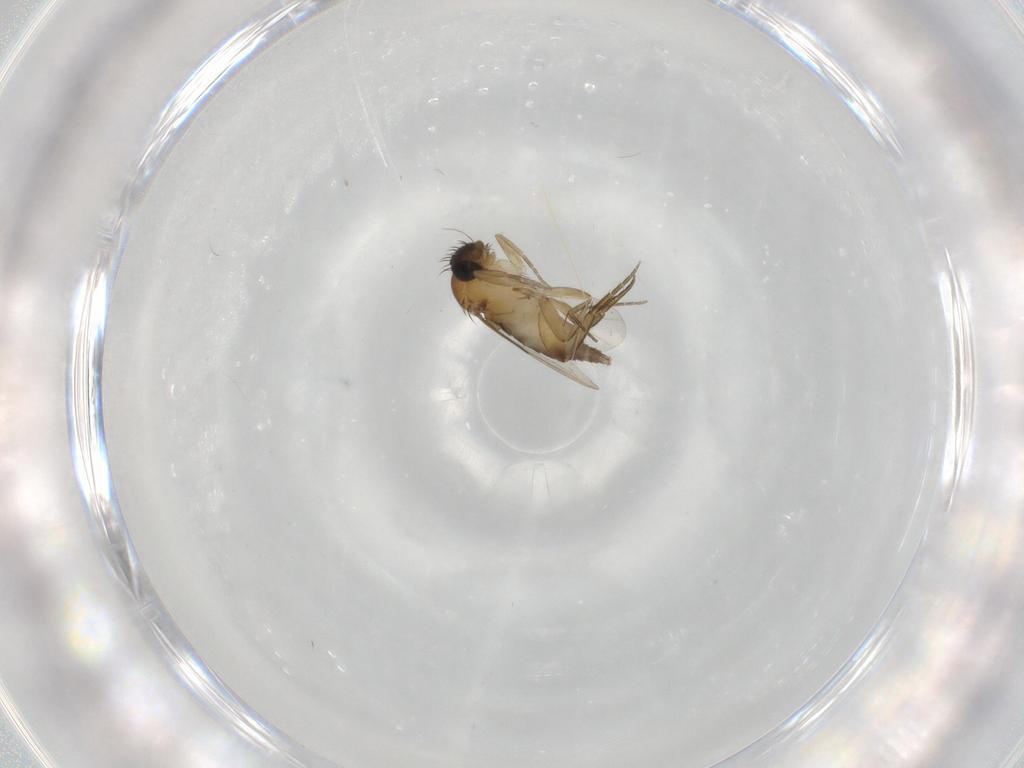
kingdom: Animalia
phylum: Arthropoda
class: Insecta
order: Diptera
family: Phoridae
